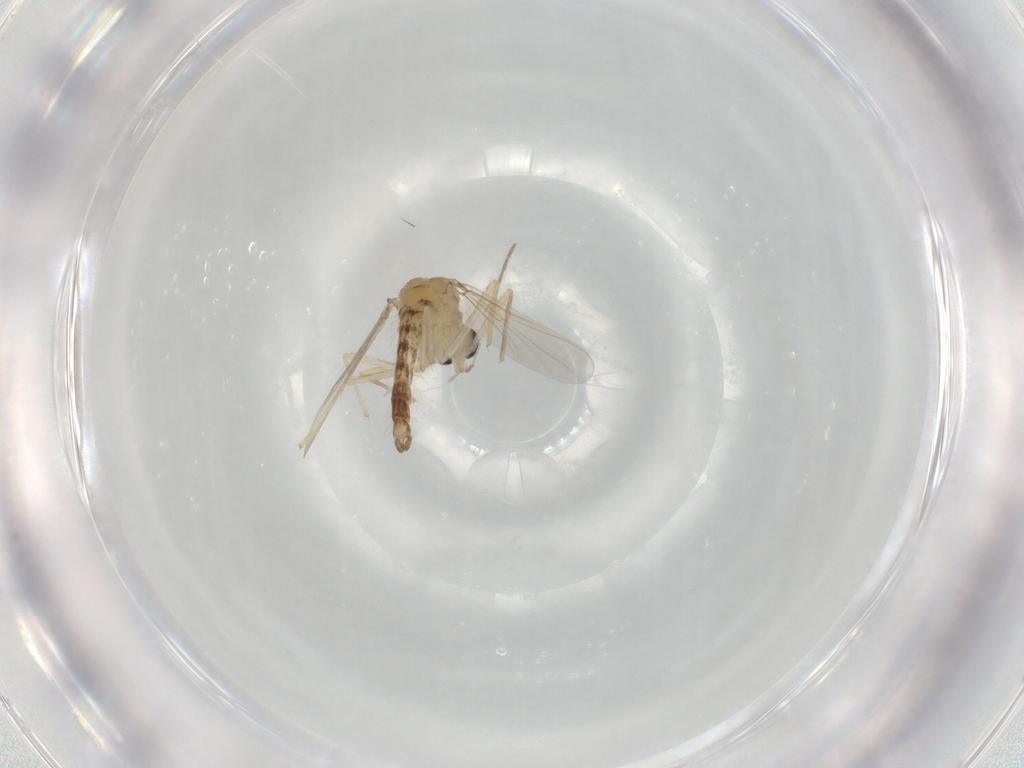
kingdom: Animalia
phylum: Arthropoda
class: Insecta
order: Diptera
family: Chironomidae
